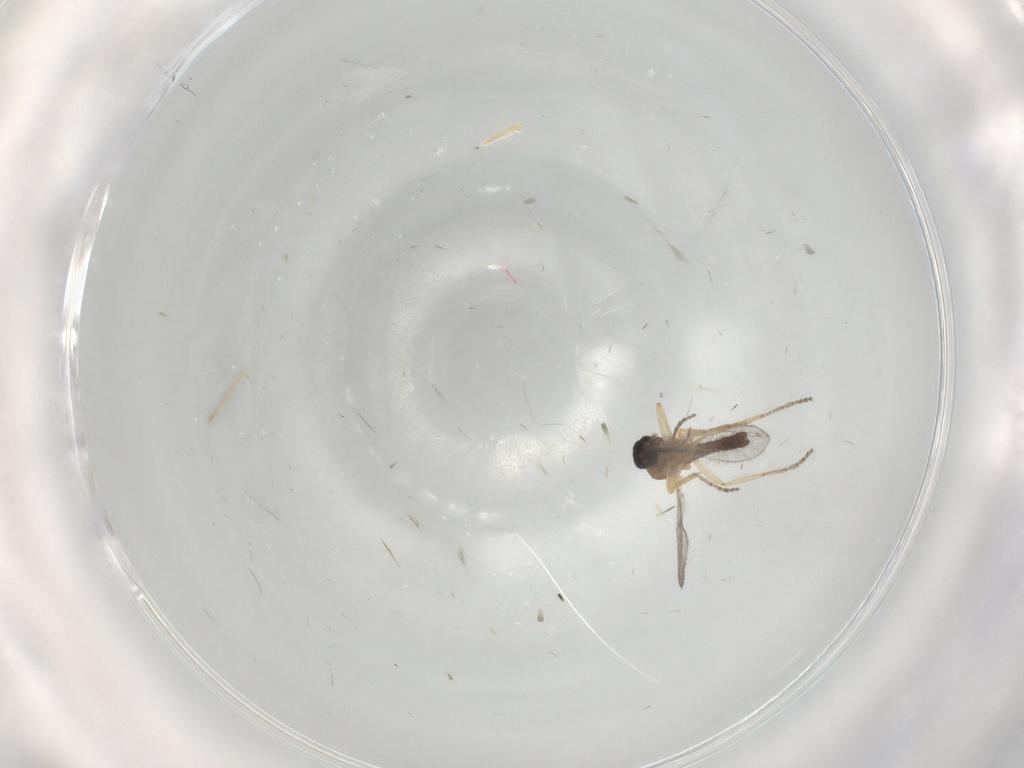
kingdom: Animalia
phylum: Arthropoda
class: Insecta
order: Diptera
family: Ceratopogonidae
